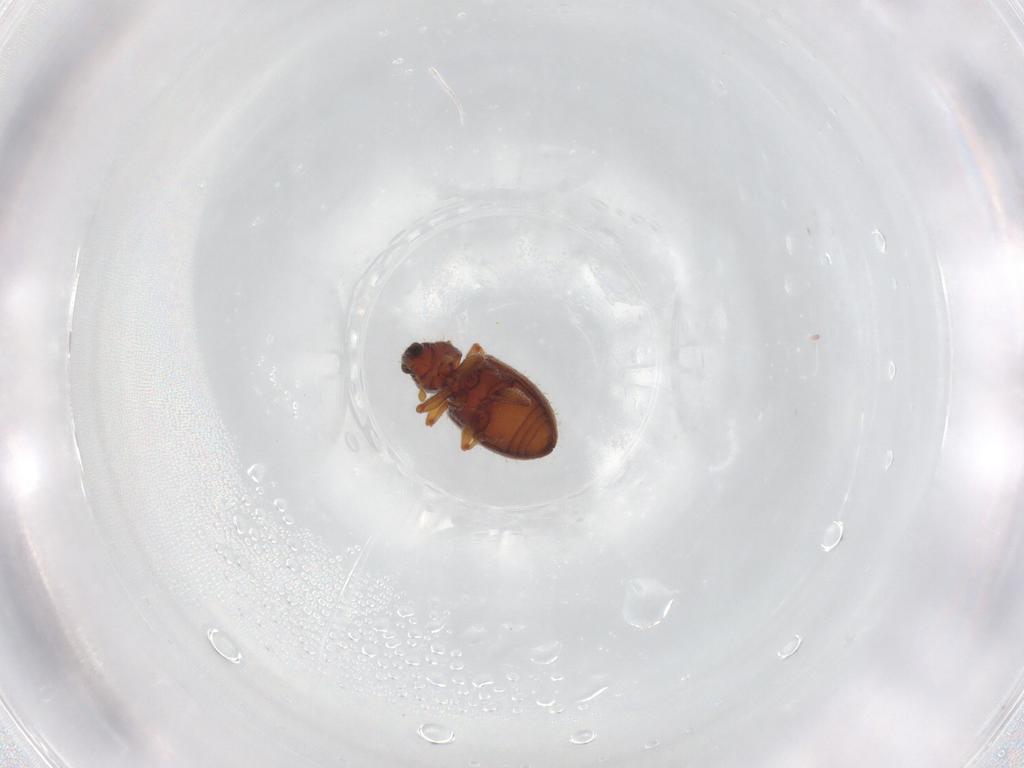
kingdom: Animalia
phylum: Arthropoda
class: Insecta
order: Coleoptera
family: Curculionidae
